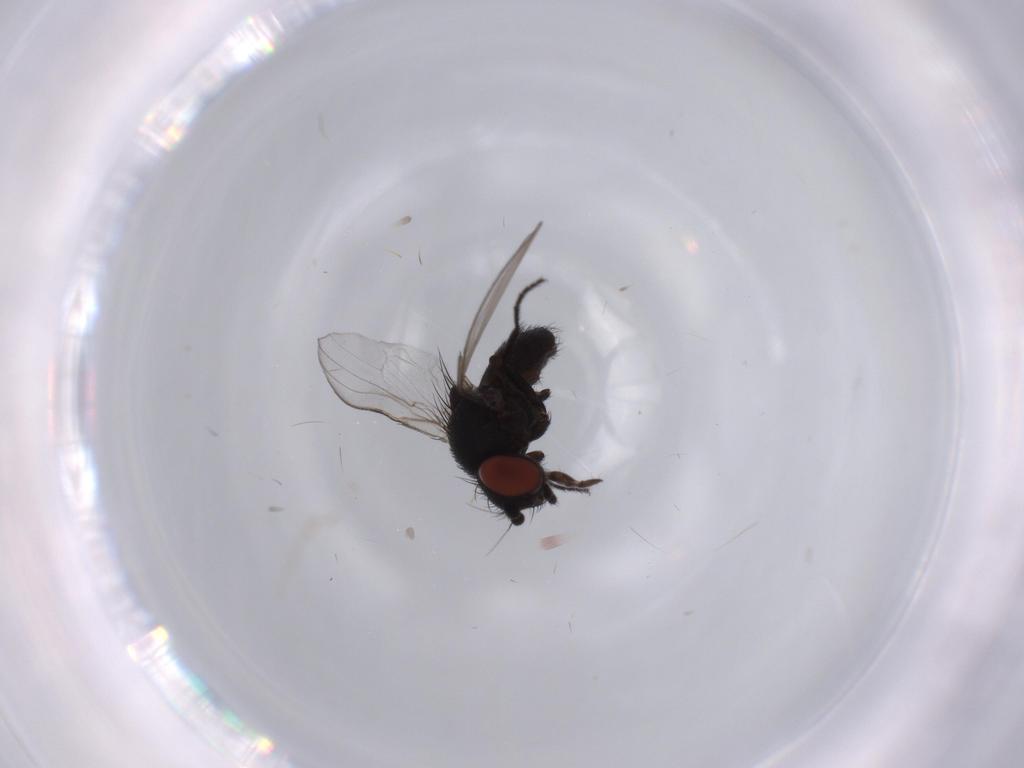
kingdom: Animalia
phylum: Arthropoda
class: Insecta
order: Diptera
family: Milichiidae
